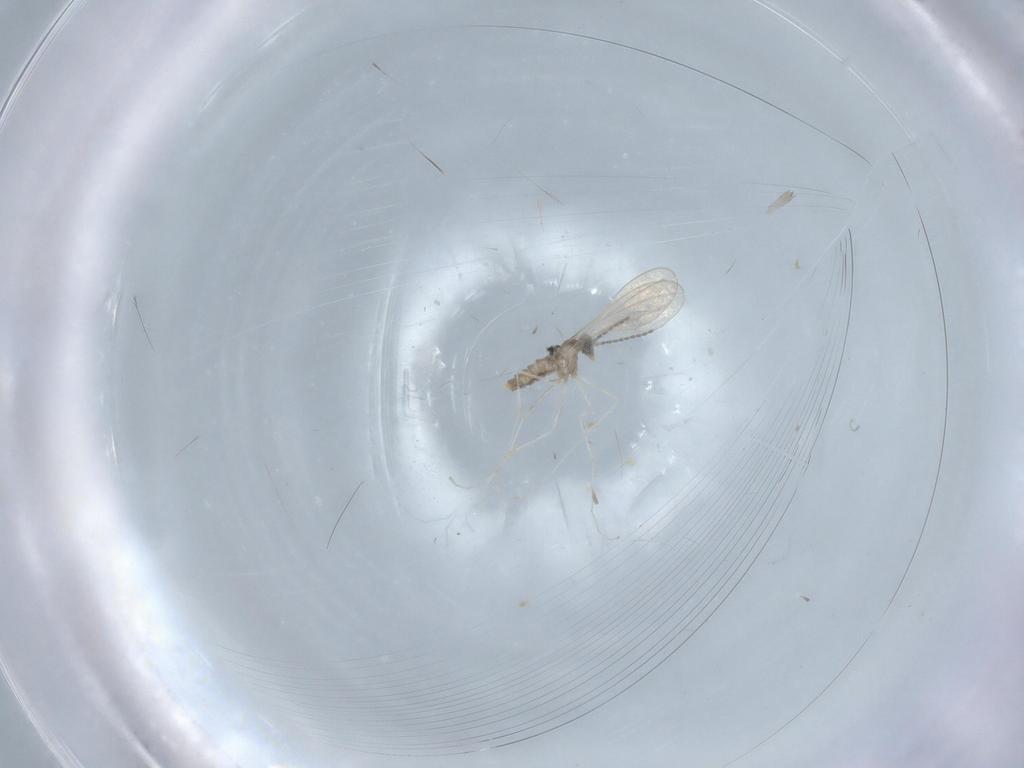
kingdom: Animalia
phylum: Arthropoda
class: Insecta
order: Diptera
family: Cecidomyiidae
